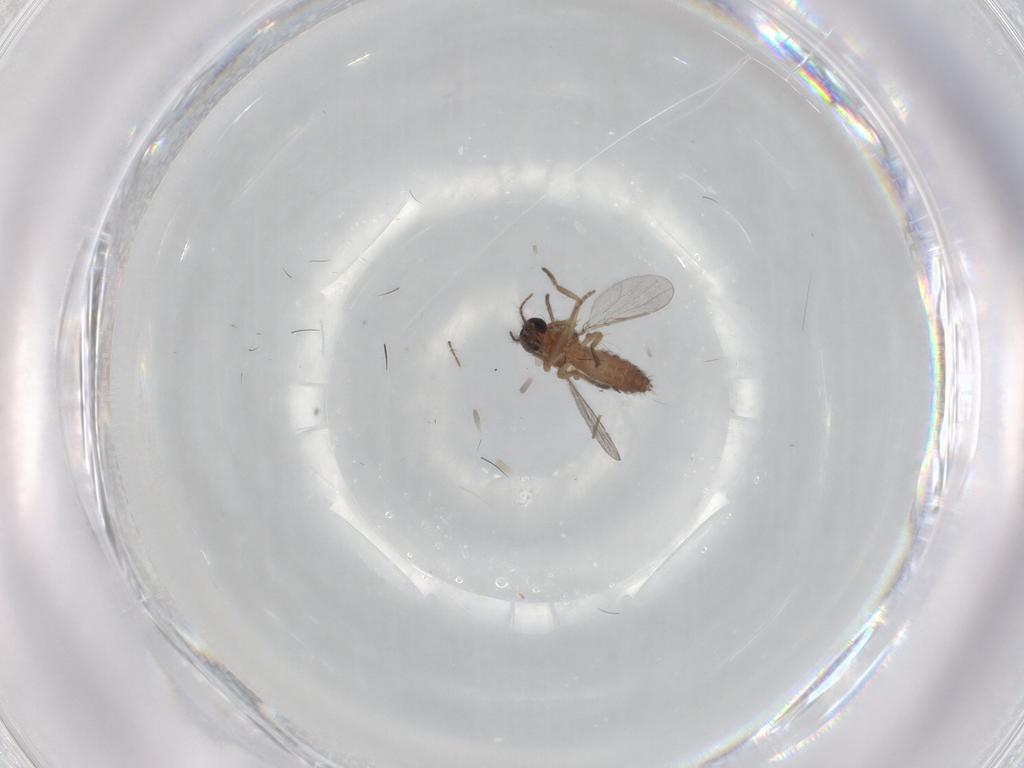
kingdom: Animalia
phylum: Arthropoda
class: Insecta
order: Diptera
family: Ceratopogonidae
